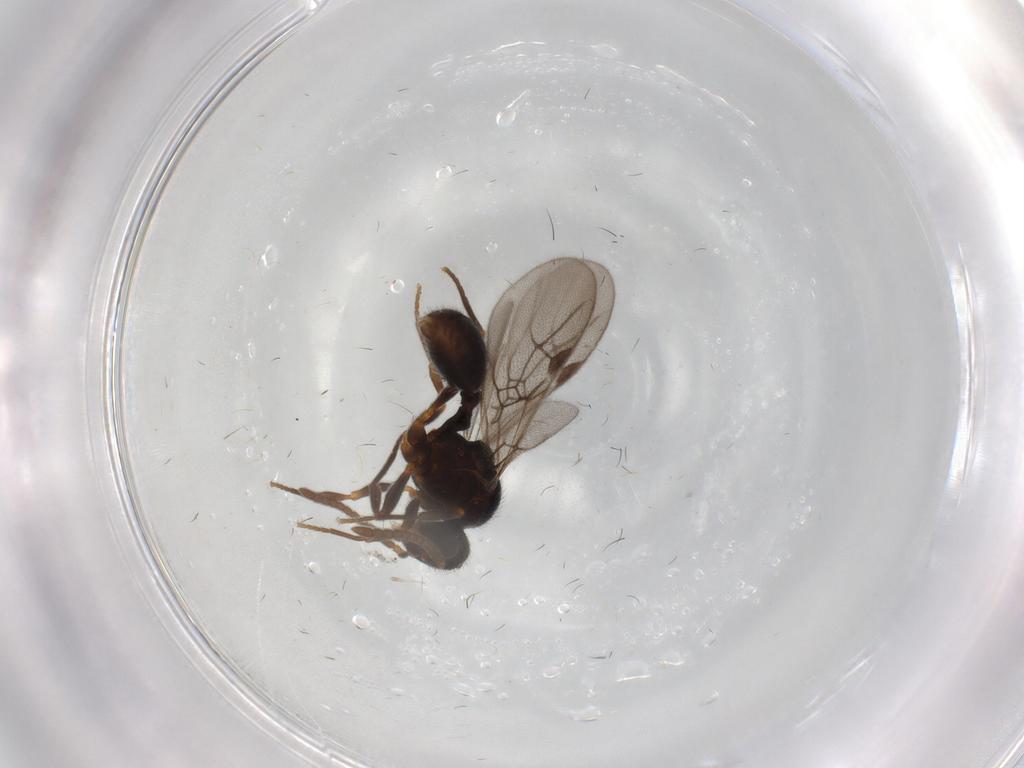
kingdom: Animalia
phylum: Arthropoda
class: Insecta
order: Hymenoptera
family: Formicidae
